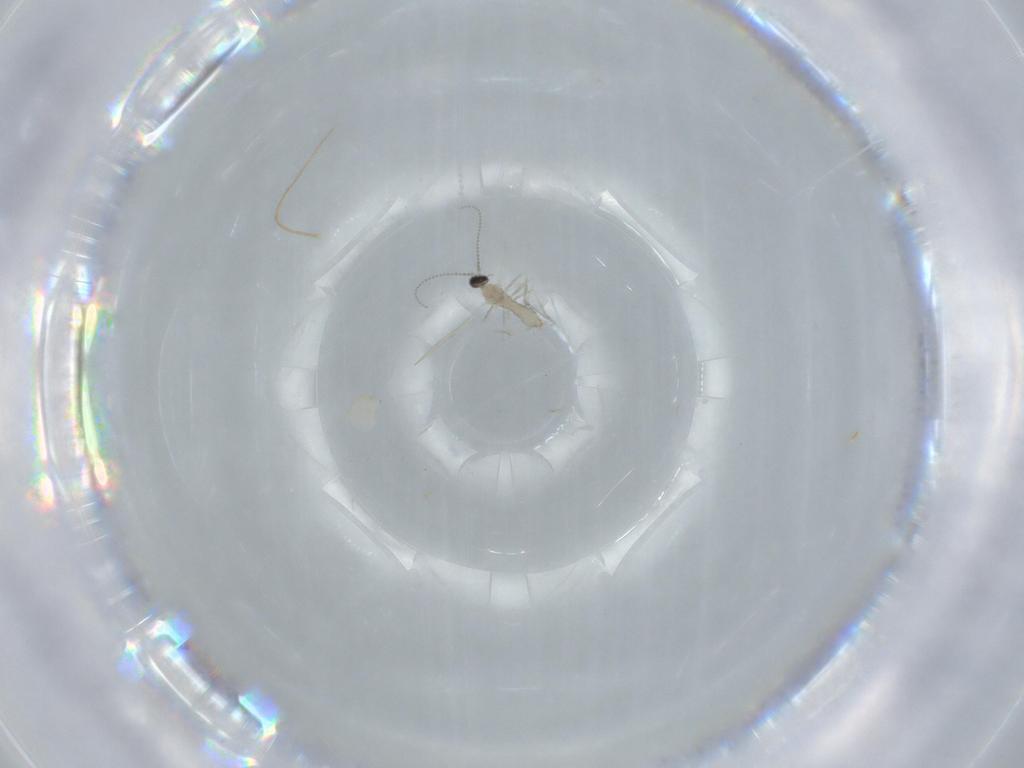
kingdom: Animalia
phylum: Arthropoda
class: Insecta
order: Diptera
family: Cecidomyiidae
